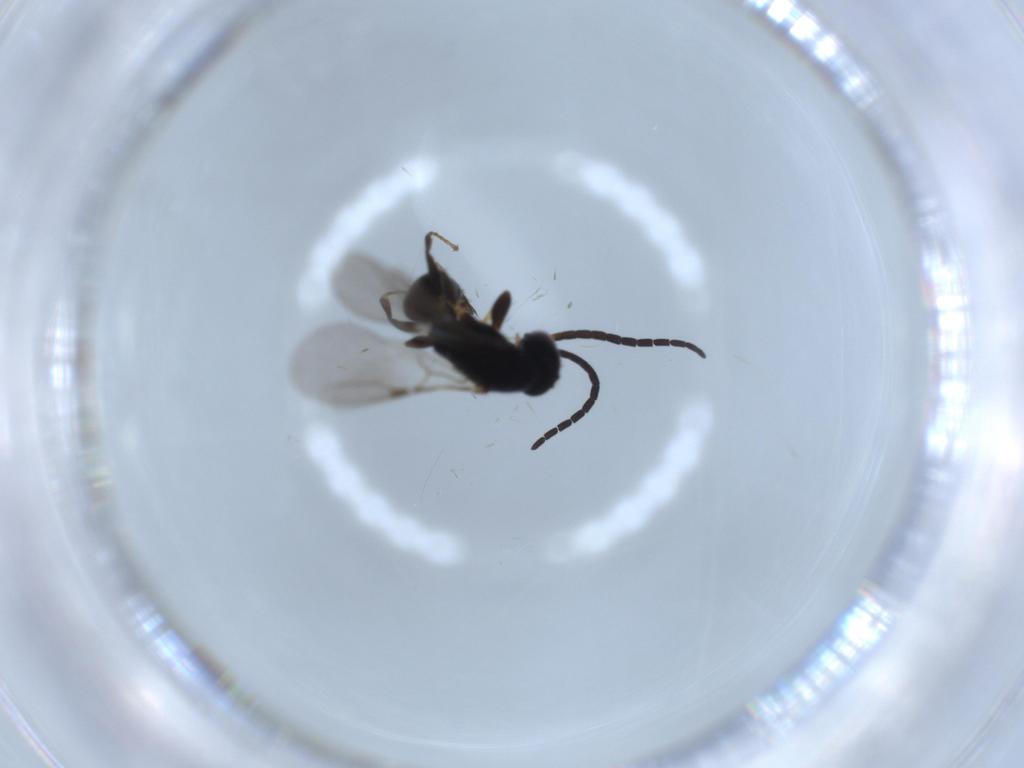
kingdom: Animalia
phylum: Arthropoda
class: Insecta
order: Hymenoptera
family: Bethylidae
